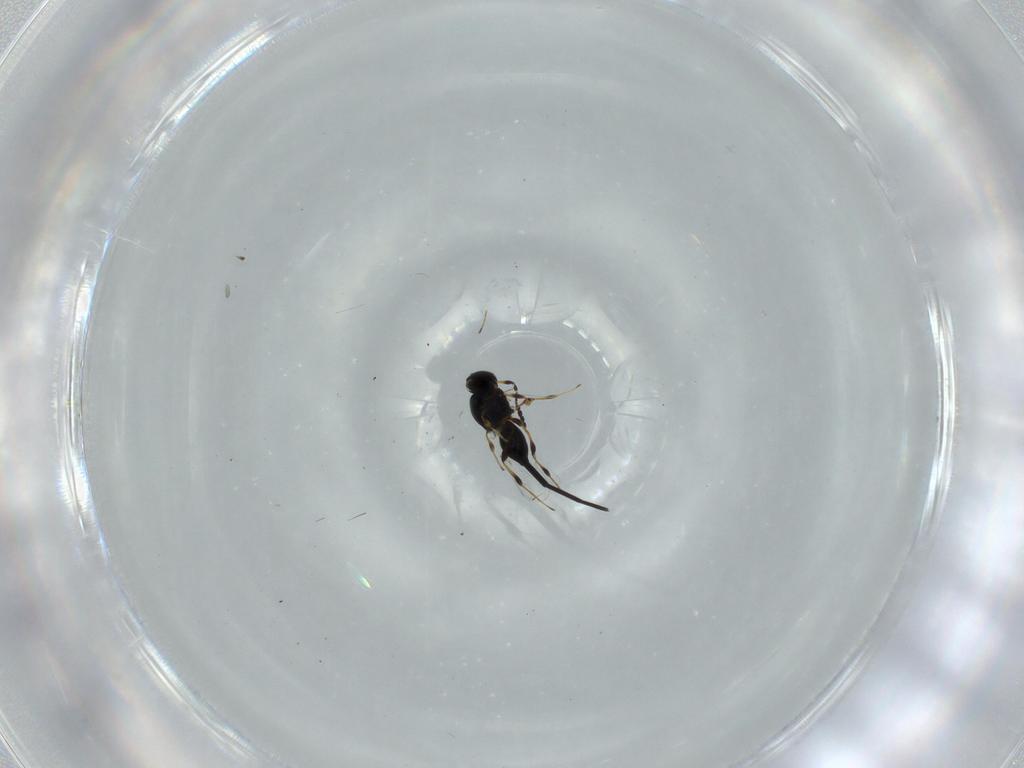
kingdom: Animalia
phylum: Arthropoda
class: Insecta
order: Hymenoptera
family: Platygastridae
